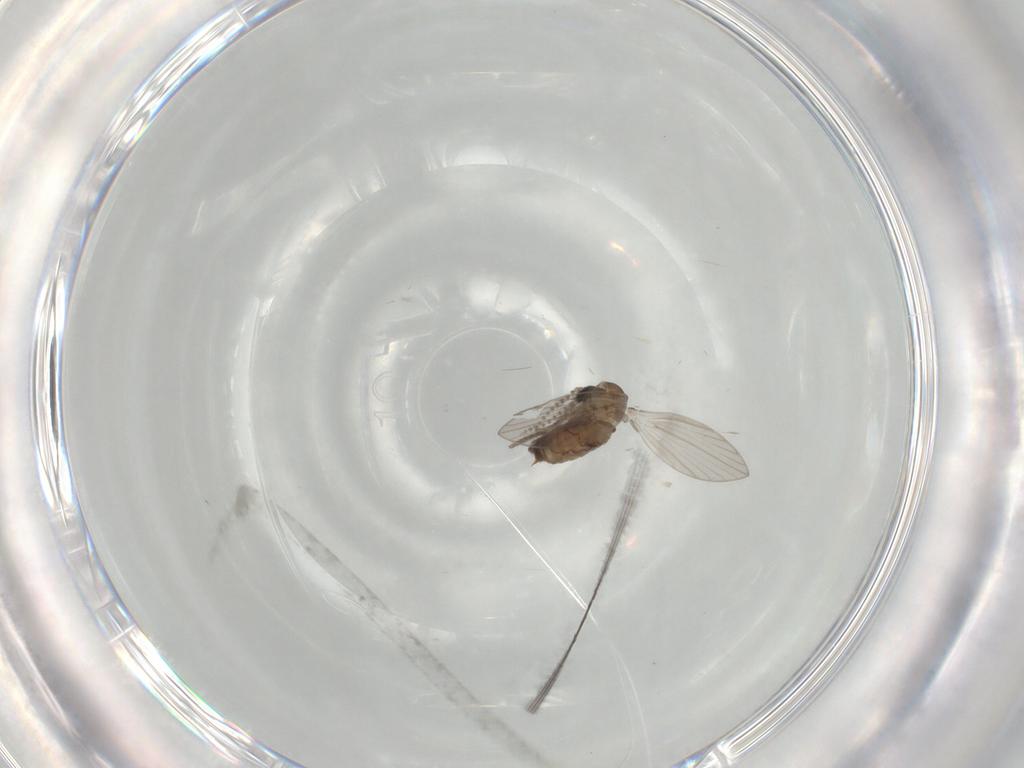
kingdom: Animalia
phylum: Arthropoda
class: Insecta
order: Diptera
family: Psychodidae
